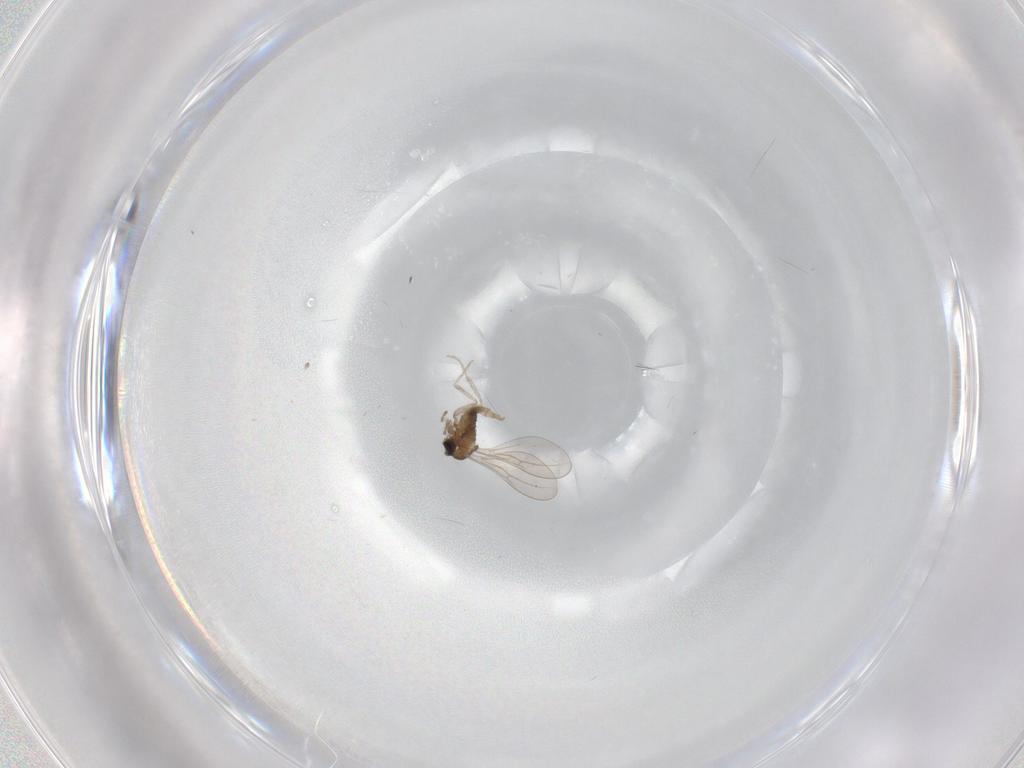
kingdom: Animalia
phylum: Arthropoda
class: Insecta
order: Diptera
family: Cecidomyiidae
